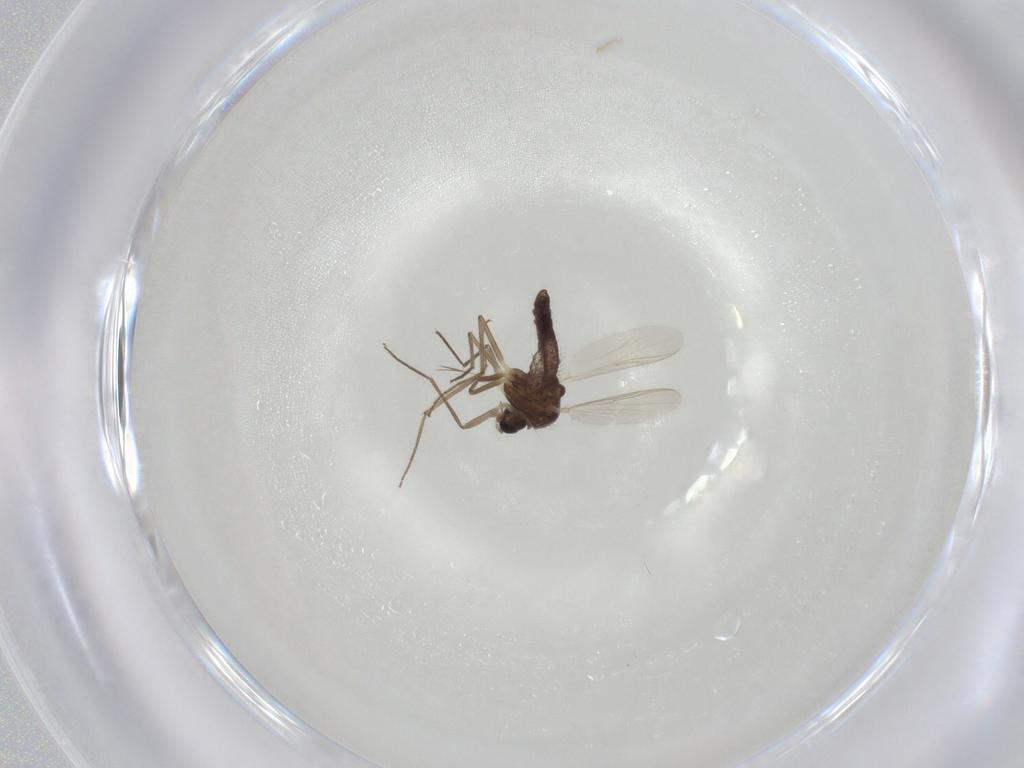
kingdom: Animalia
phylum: Arthropoda
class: Insecta
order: Diptera
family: Chironomidae
